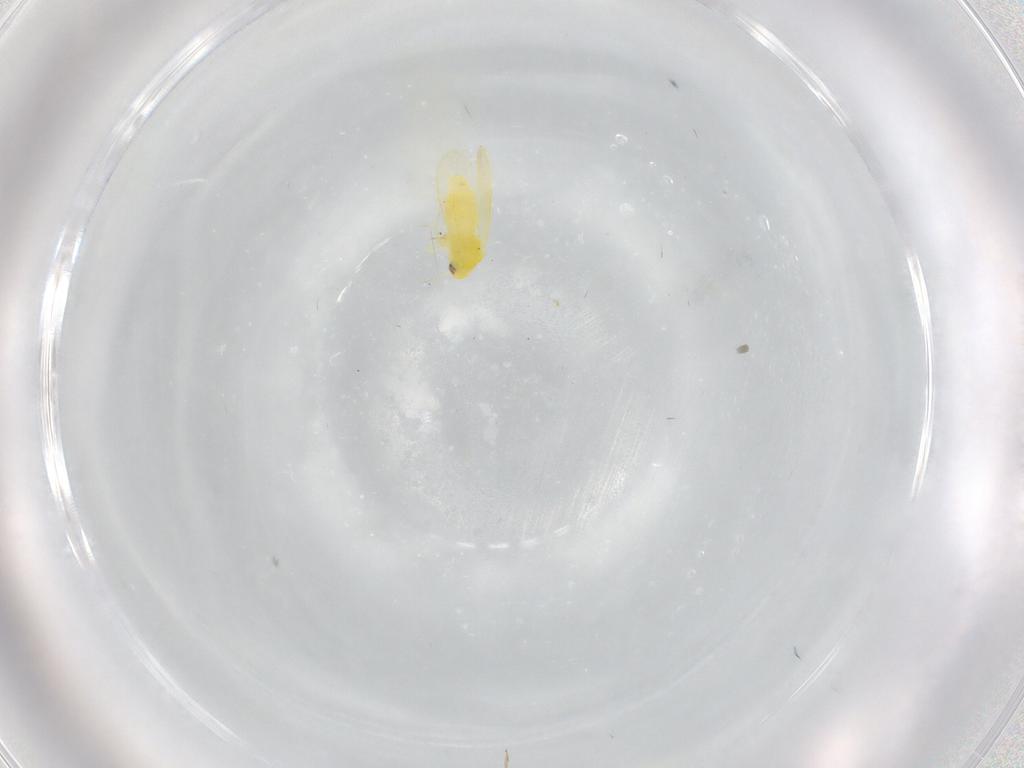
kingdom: Animalia
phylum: Arthropoda
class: Insecta
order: Hemiptera
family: Aleyrodidae
